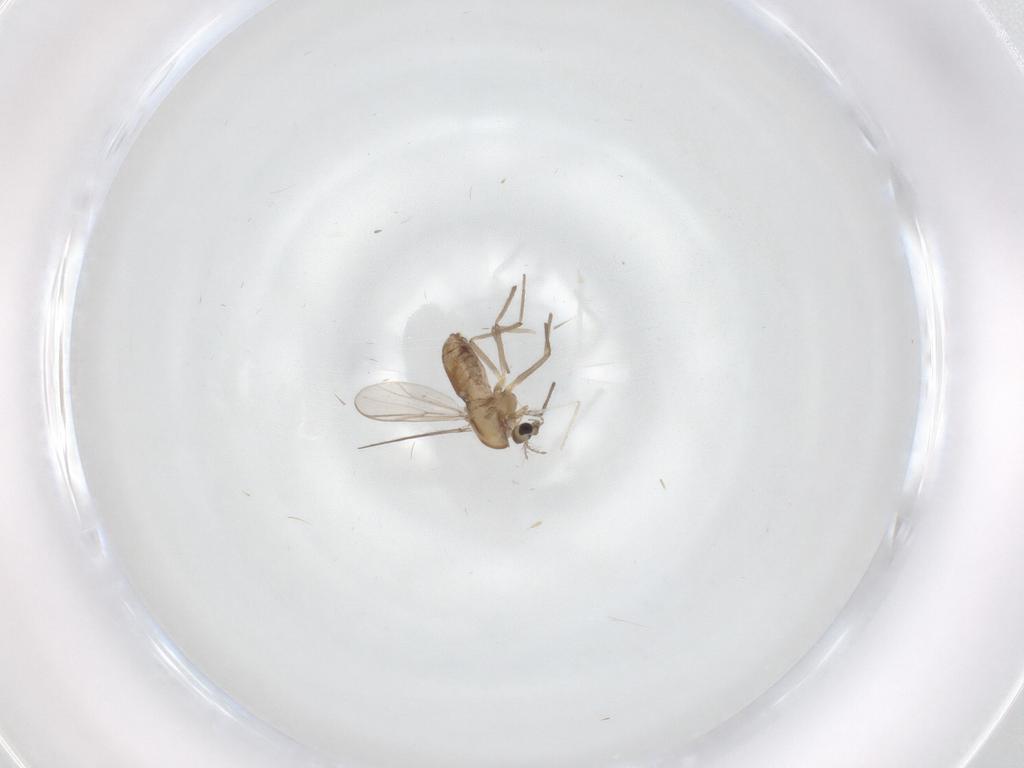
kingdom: Animalia
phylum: Arthropoda
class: Insecta
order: Diptera
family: Chironomidae
